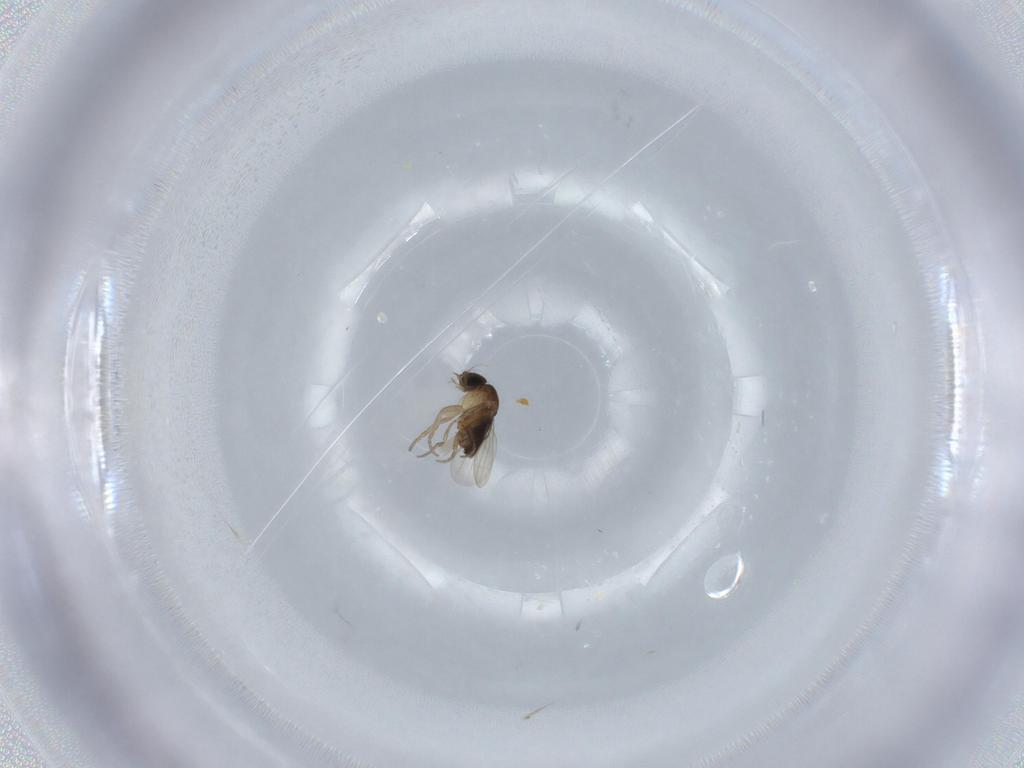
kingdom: Animalia
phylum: Arthropoda
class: Insecta
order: Diptera
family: Phoridae
